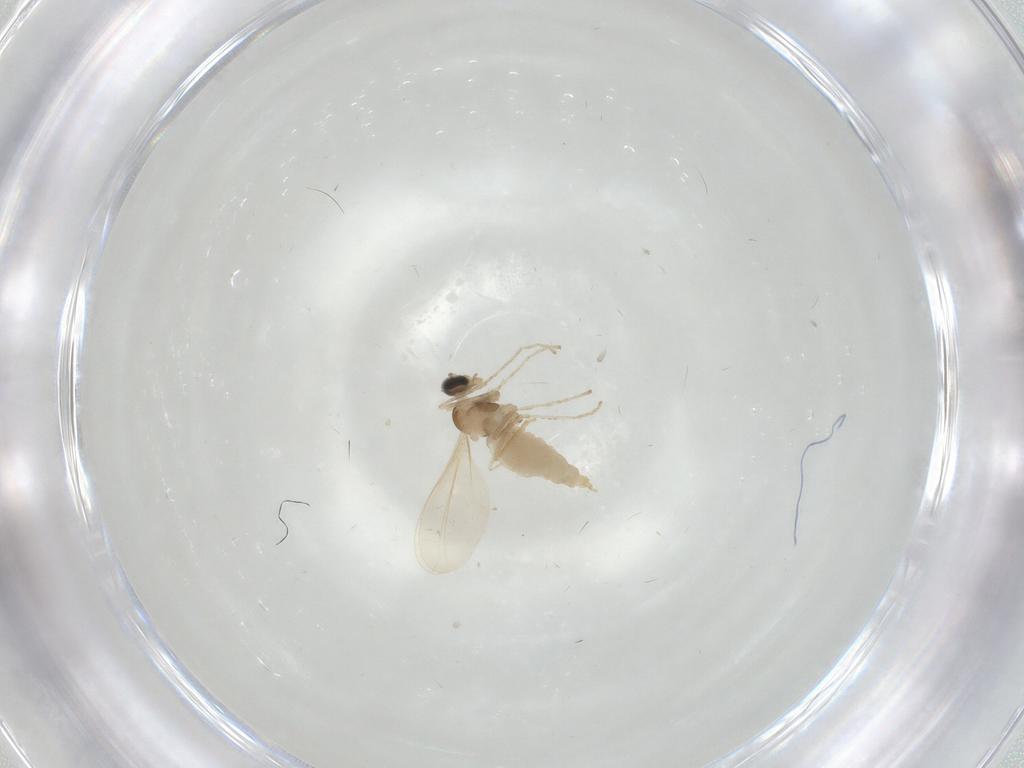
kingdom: Animalia
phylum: Arthropoda
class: Insecta
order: Diptera
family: Cecidomyiidae
